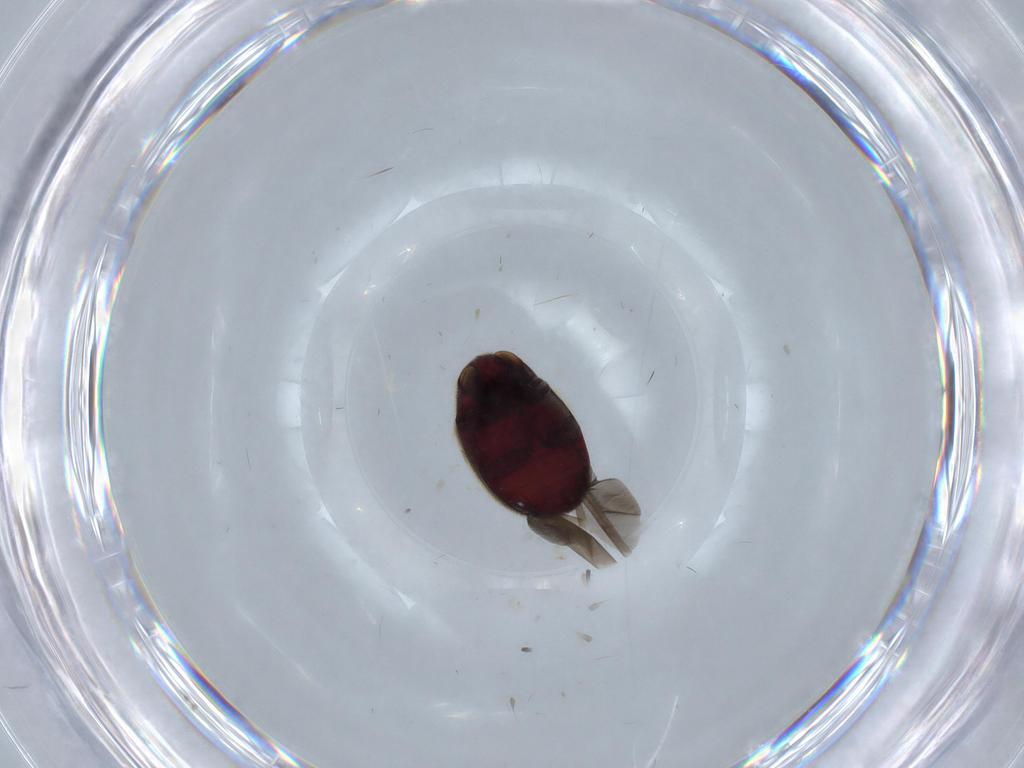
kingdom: Animalia
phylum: Arthropoda
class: Insecta
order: Coleoptera
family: Ptinidae
